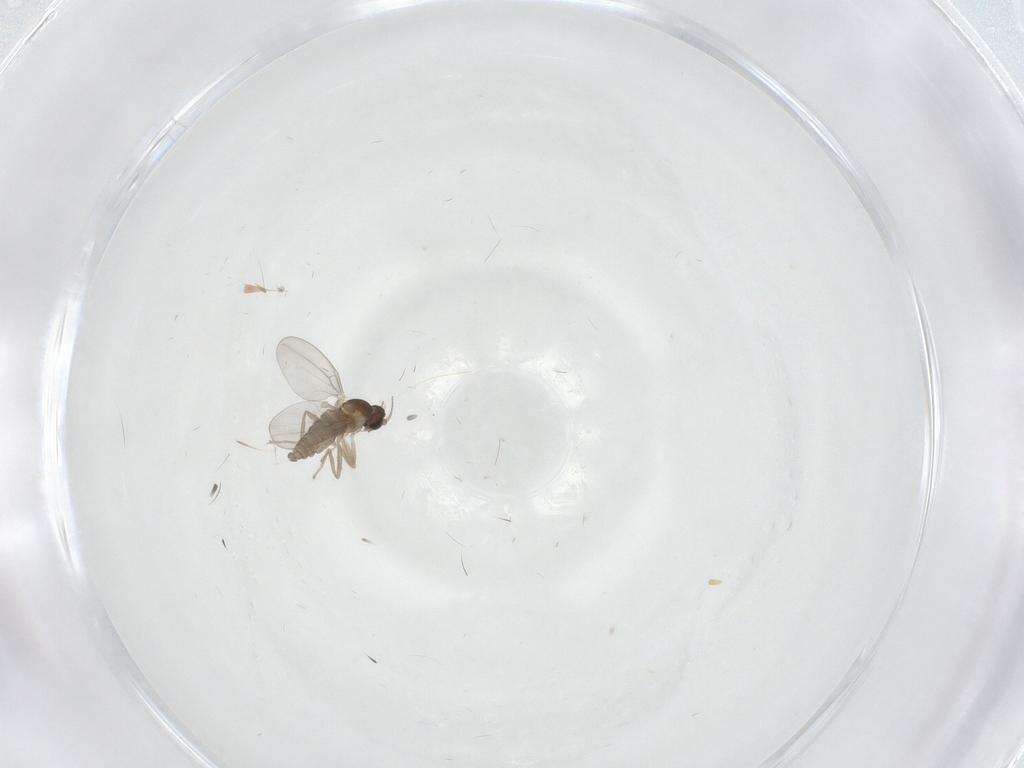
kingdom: Animalia
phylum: Arthropoda
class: Insecta
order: Diptera
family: Cecidomyiidae
